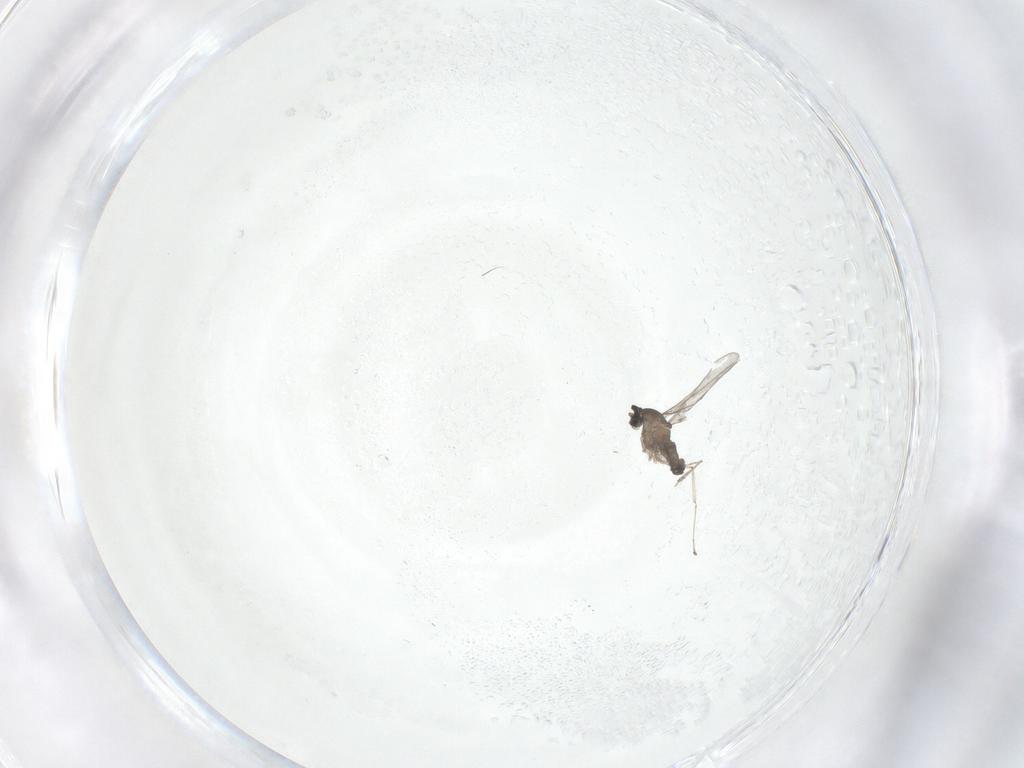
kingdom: Animalia
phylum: Arthropoda
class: Insecta
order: Diptera
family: Cecidomyiidae
